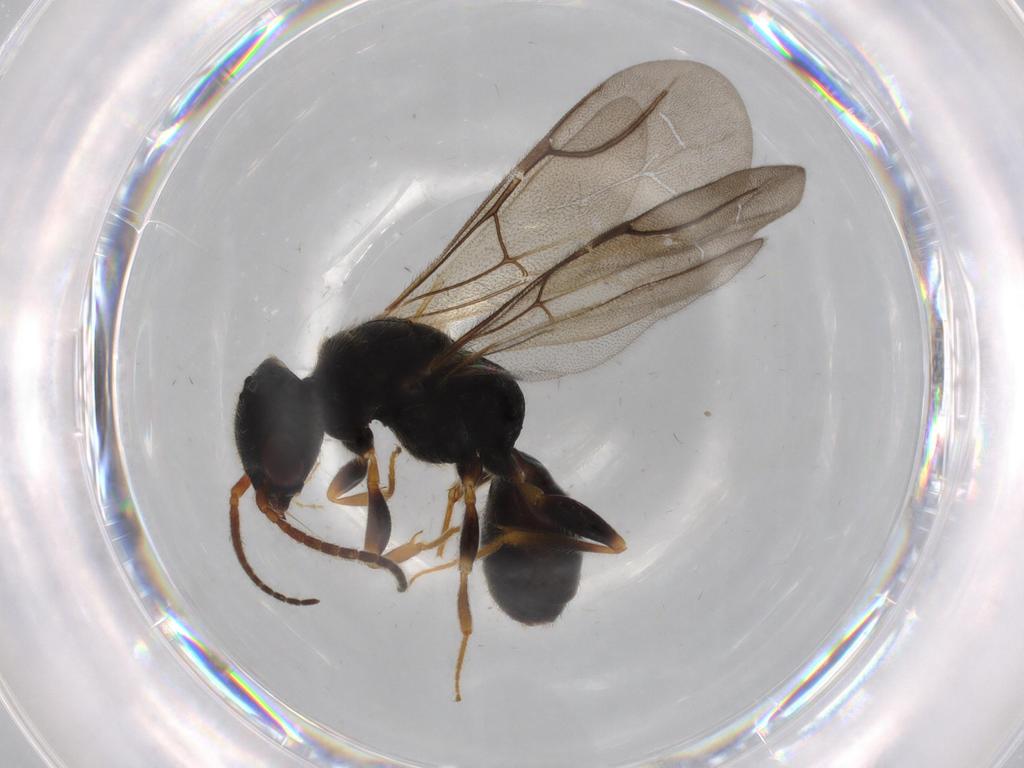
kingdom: Animalia
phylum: Arthropoda
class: Insecta
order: Hymenoptera
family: Bethylidae
